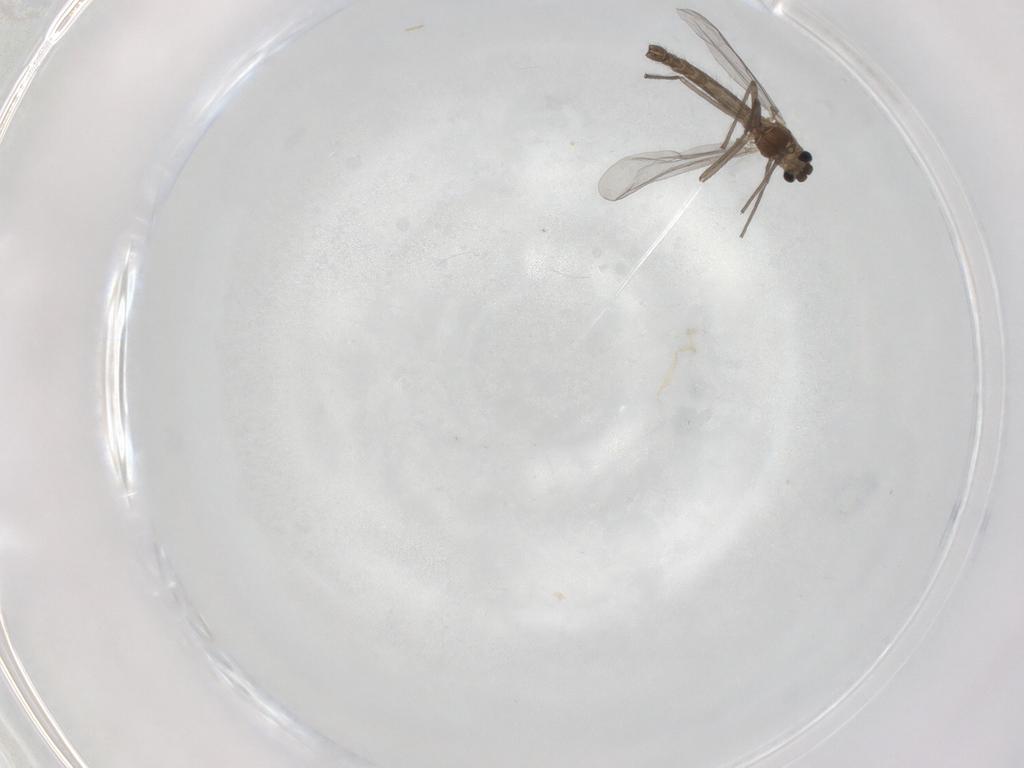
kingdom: Animalia
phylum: Arthropoda
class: Insecta
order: Diptera
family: Chironomidae
